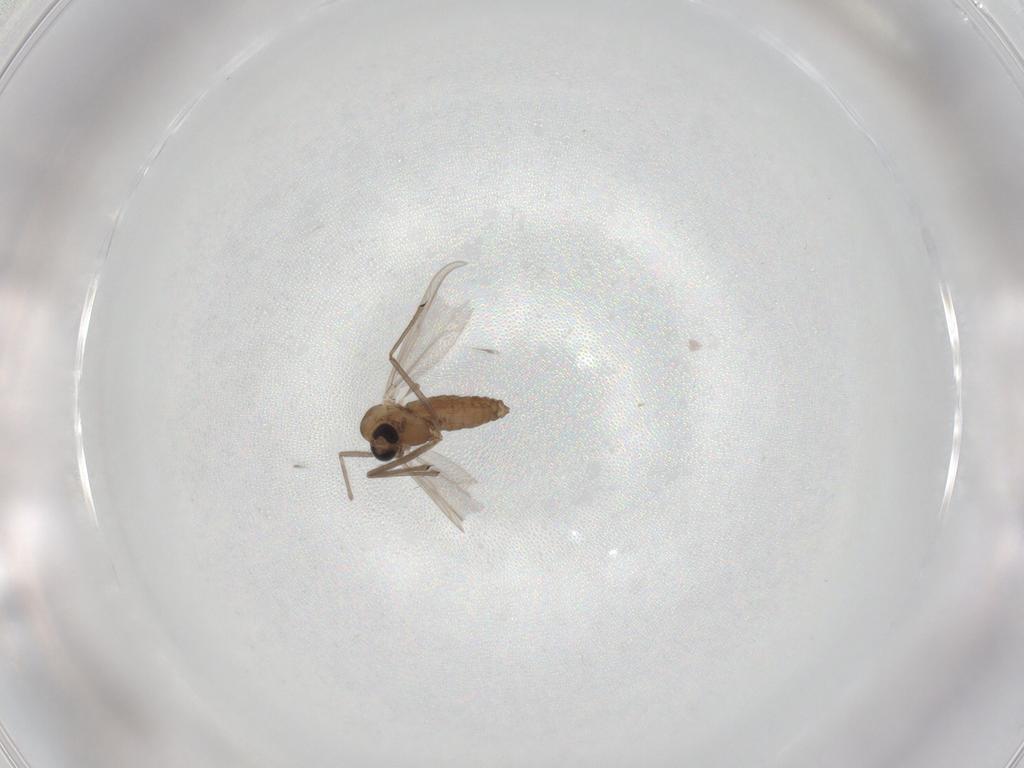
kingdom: Animalia
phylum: Arthropoda
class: Insecta
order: Diptera
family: Chironomidae
